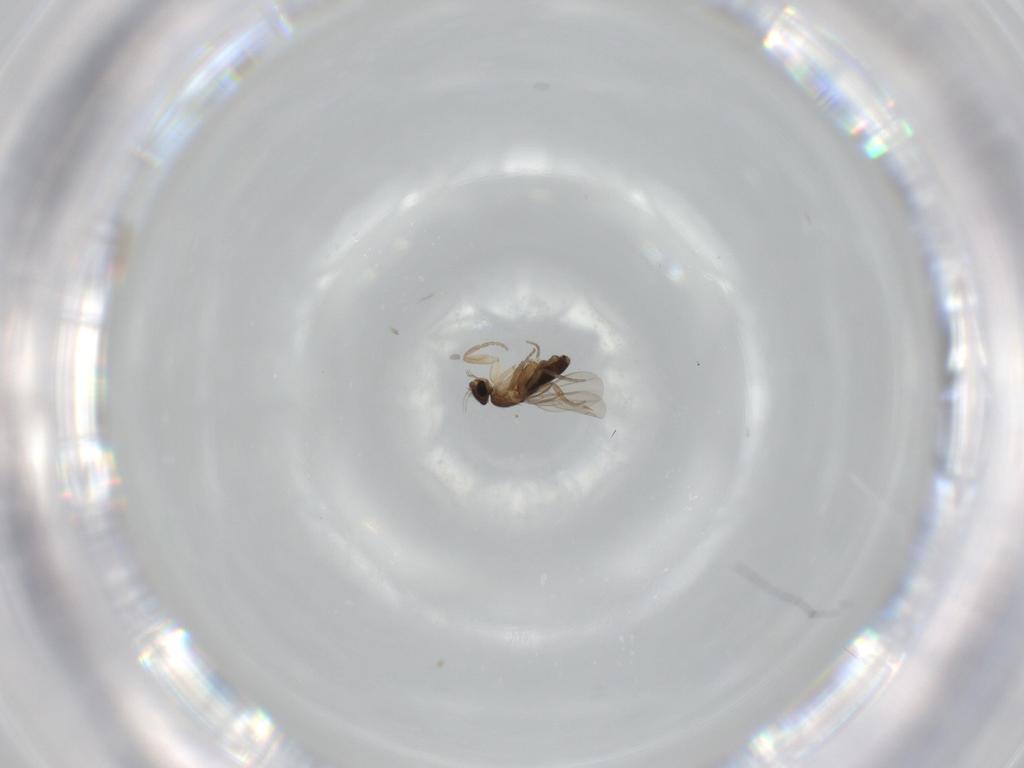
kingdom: Animalia
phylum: Arthropoda
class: Insecta
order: Diptera
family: Phoridae
